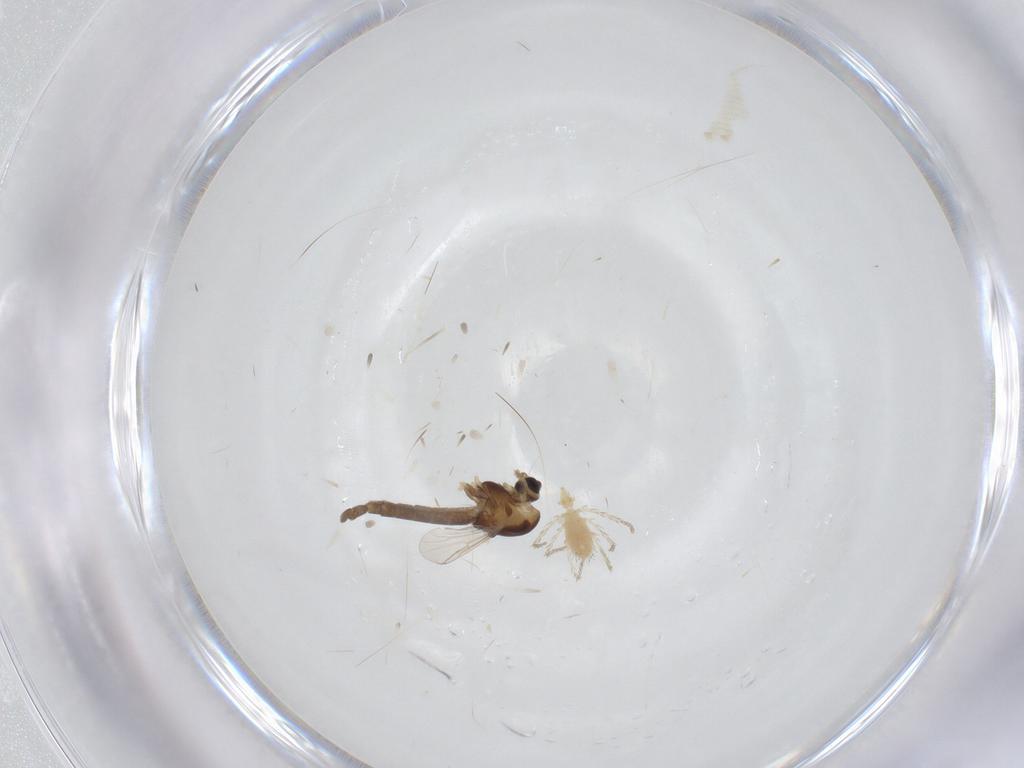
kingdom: Animalia
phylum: Arthropoda
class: Insecta
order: Diptera
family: Chironomidae
